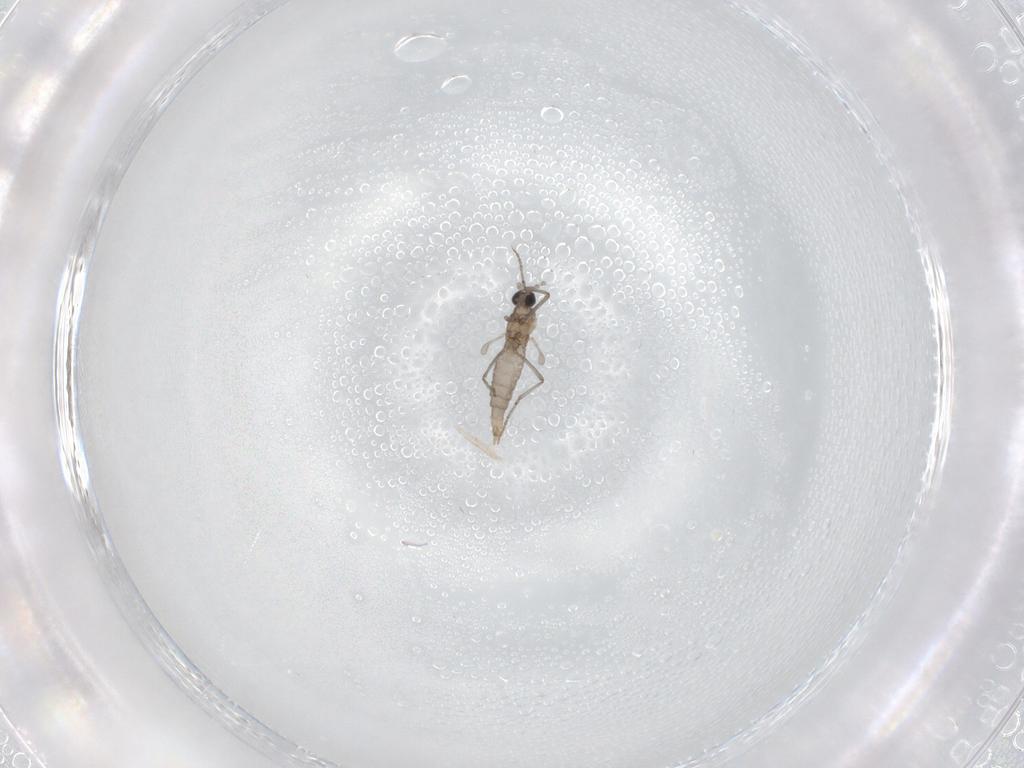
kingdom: Animalia
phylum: Arthropoda
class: Insecta
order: Diptera
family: Cecidomyiidae
